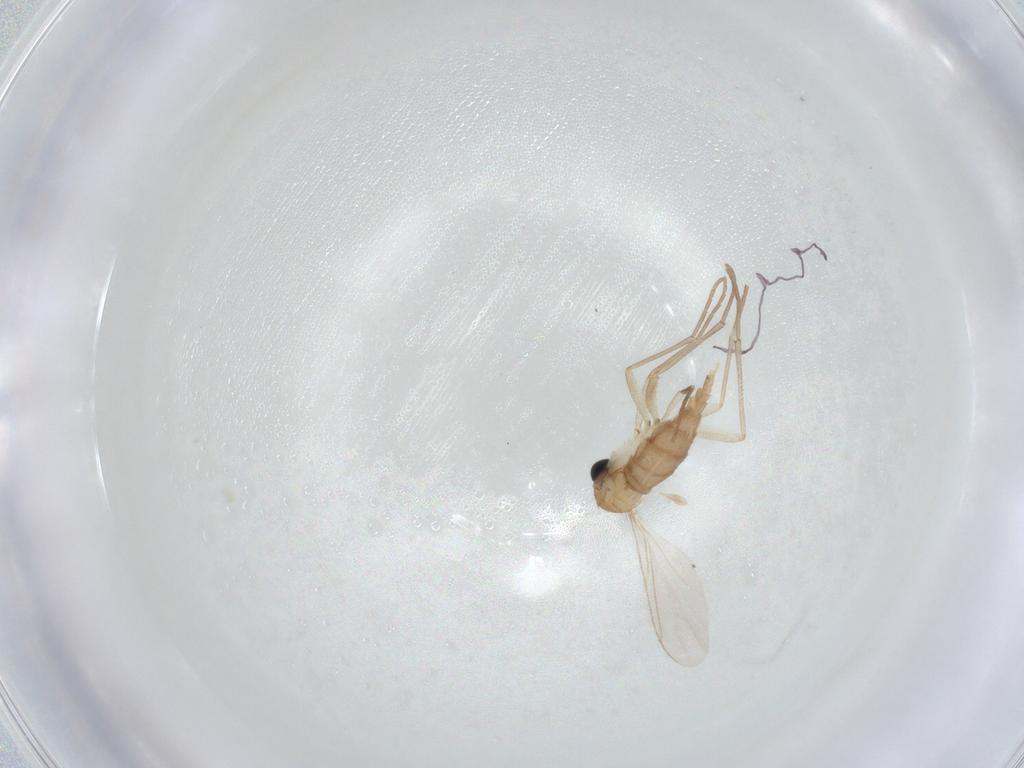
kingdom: Animalia
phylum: Arthropoda
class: Insecta
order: Diptera
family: Sciaridae
